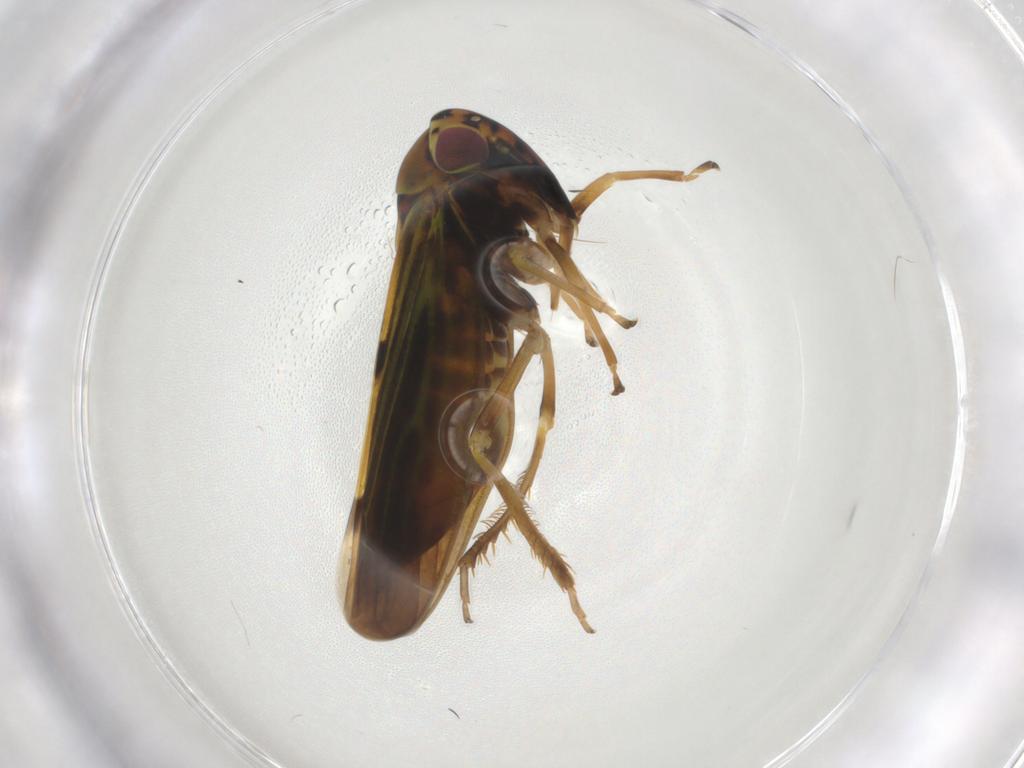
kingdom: Animalia
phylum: Arthropoda
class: Insecta
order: Hemiptera
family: Cicadellidae
